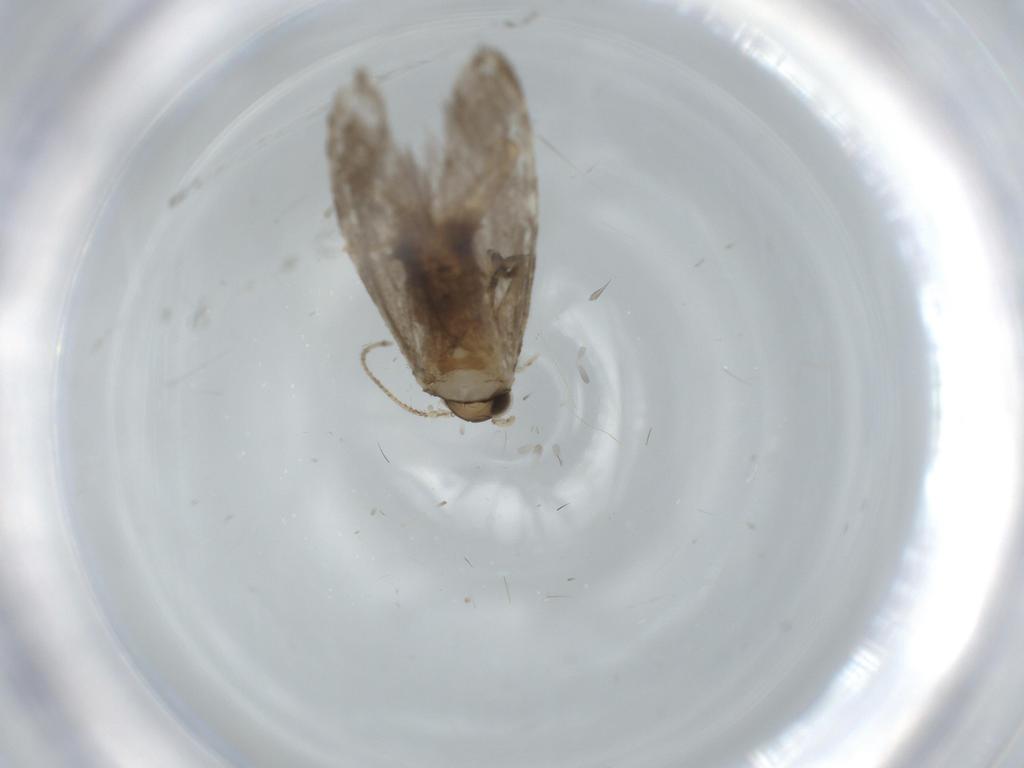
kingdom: Animalia
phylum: Arthropoda
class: Insecta
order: Lepidoptera
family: Tineidae
